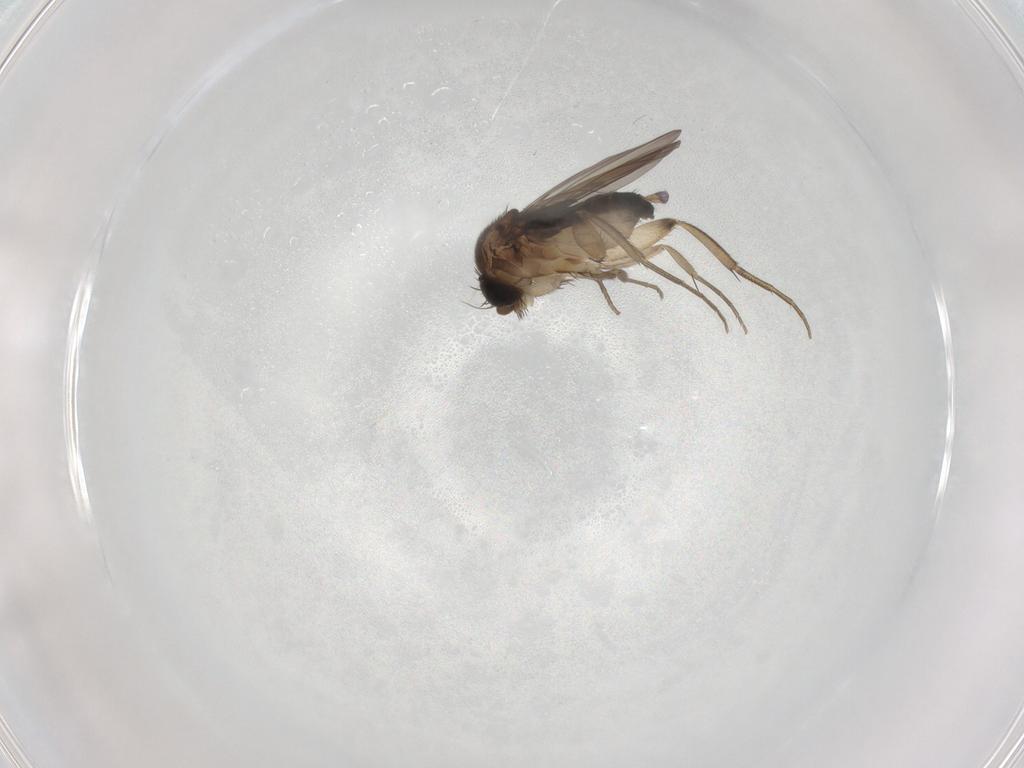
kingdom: Animalia
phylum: Arthropoda
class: Insecta
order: Diptera
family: Phoridae
